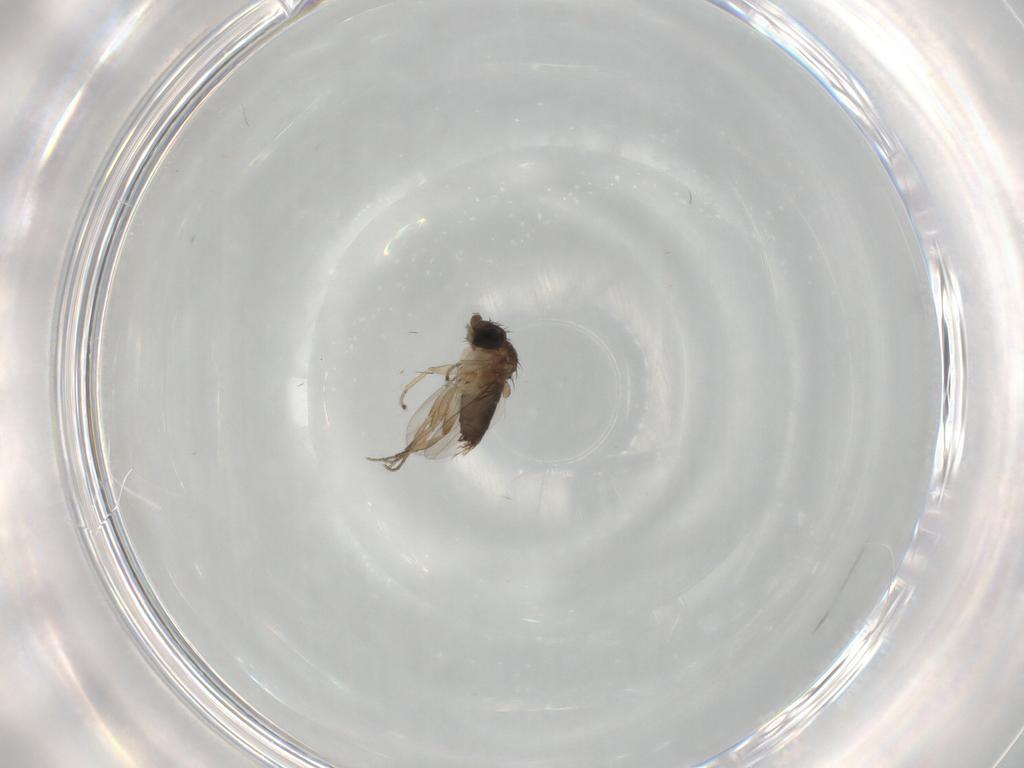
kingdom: Animalia
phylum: Arthropoda
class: Insecta
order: Diptera
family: Phoridae
